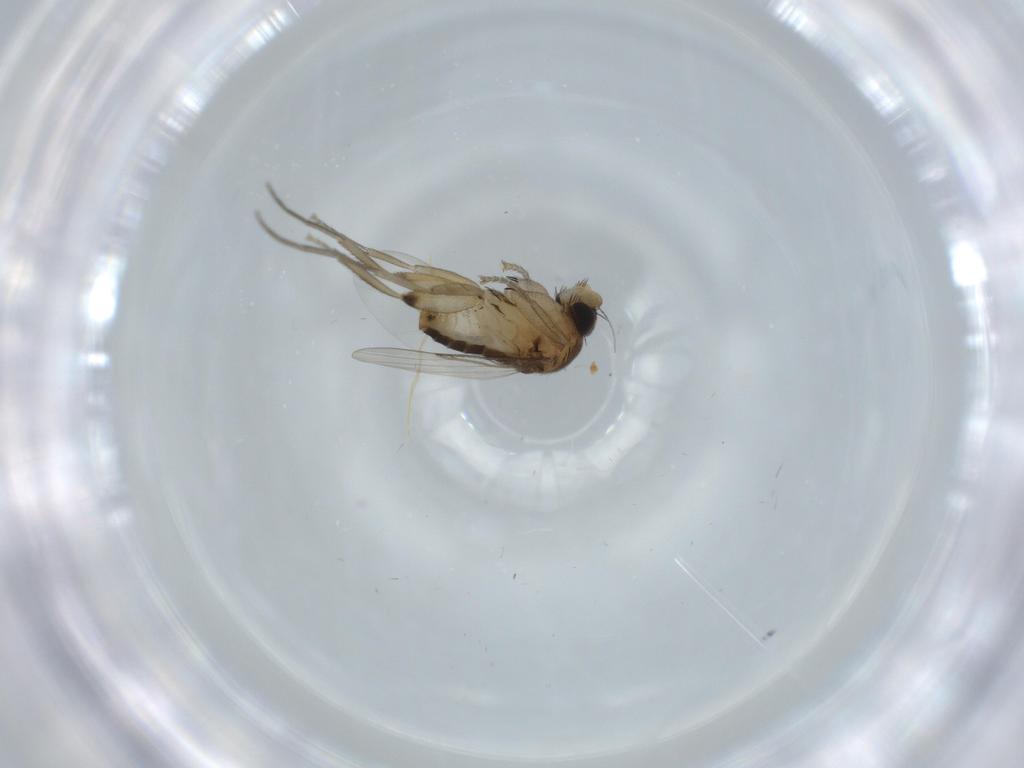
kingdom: Animalia
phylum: Arthropoda
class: Insecta
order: Diptera
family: Phoridae
